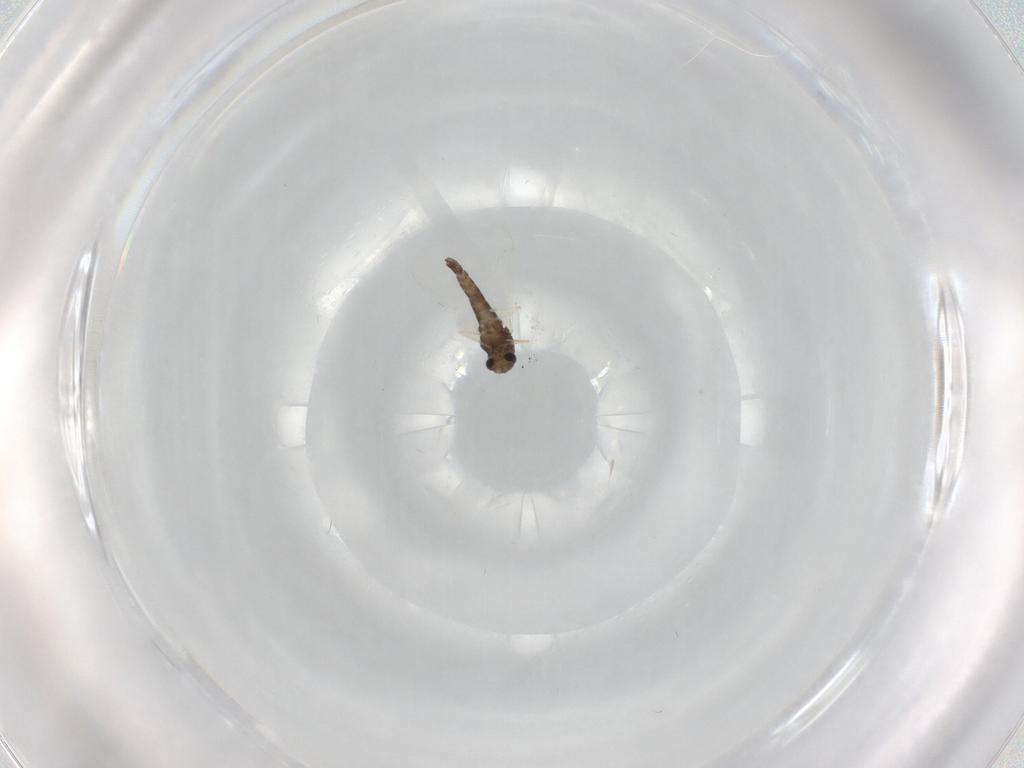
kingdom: Animalia
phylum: Arthropoda
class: Insecta
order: Diptera
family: Chironomidae
